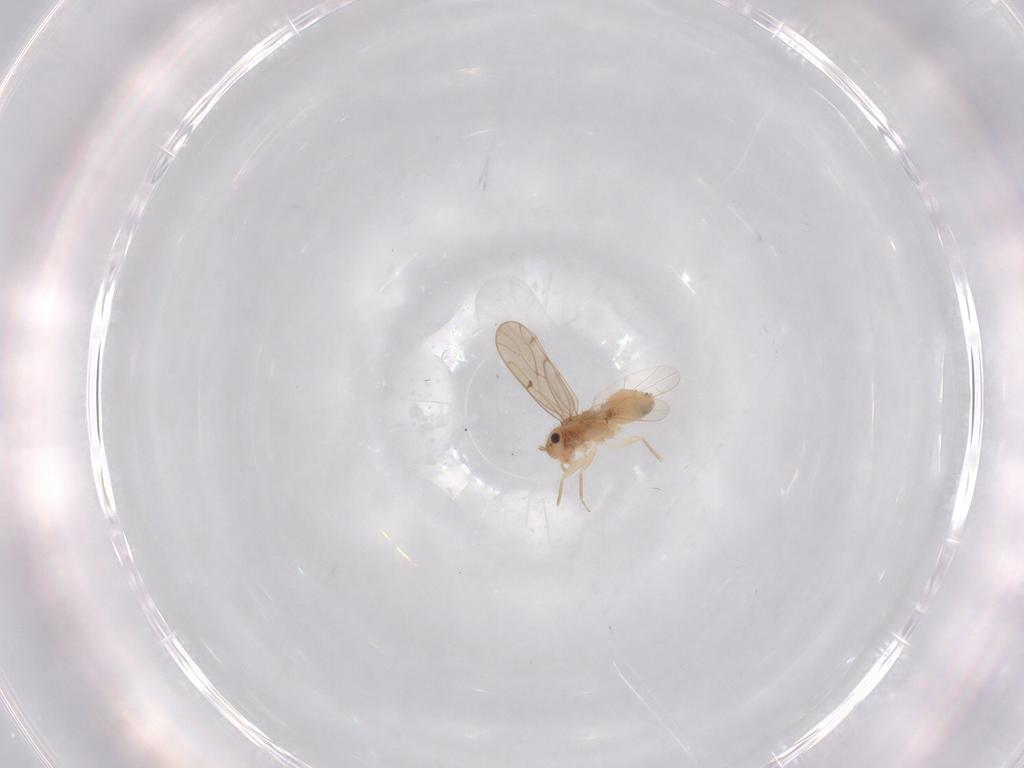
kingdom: Animalia
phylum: Arthropoda
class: Insecta
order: Psocodea
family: Ectopsocidae
